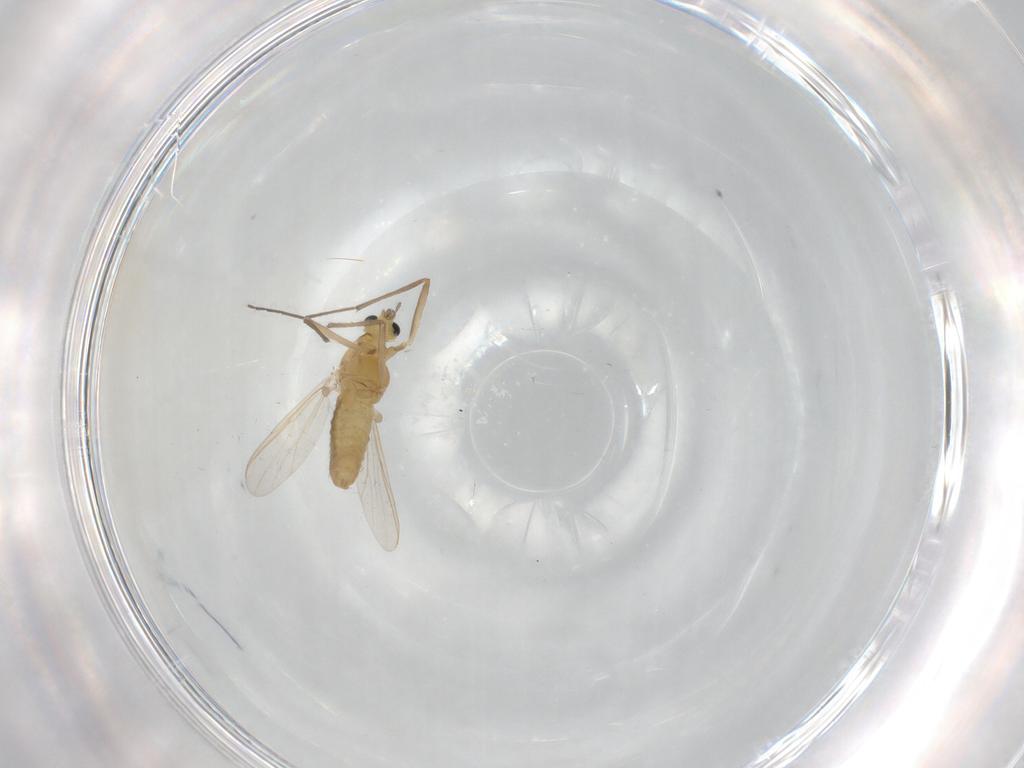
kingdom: Animalia
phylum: Arthropoda
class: Insecta
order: Diptera
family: Chironomidae
